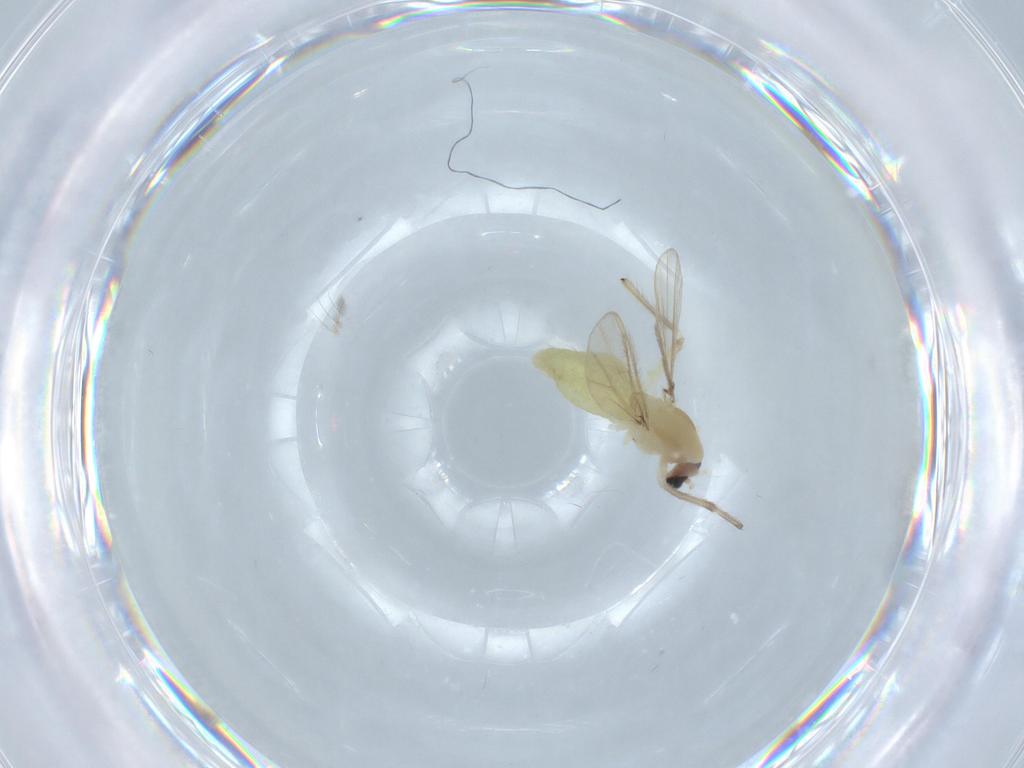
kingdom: Animalia
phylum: Arthropoda
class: Insecta
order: Diptera
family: Chironomidae
